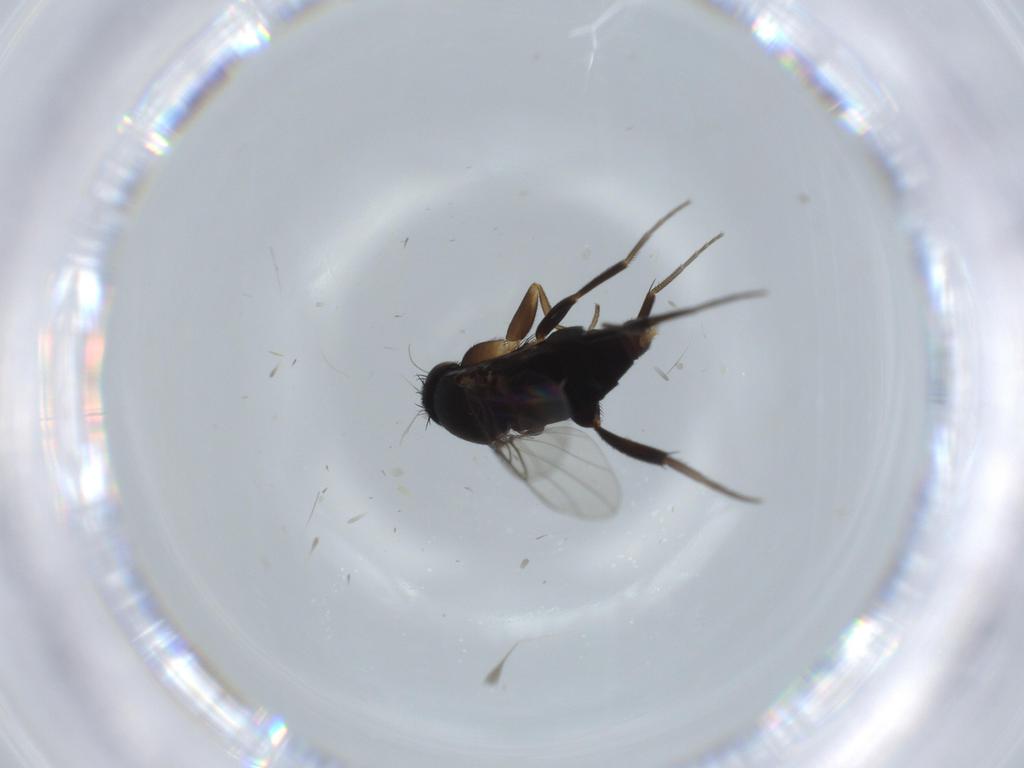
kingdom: Animalia
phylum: Arthropoda
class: Insecta
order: Diptera
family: Phoridae
